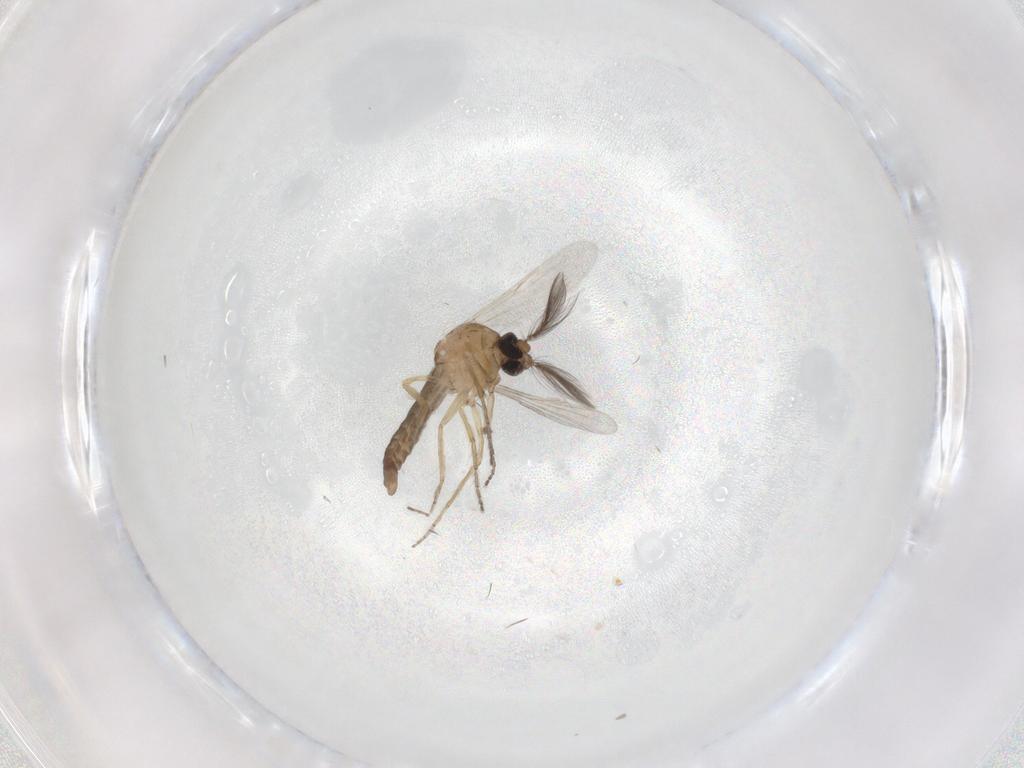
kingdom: Animalia
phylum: Arthropoda
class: Insecta
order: Diptera
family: Ceratopogonidae
